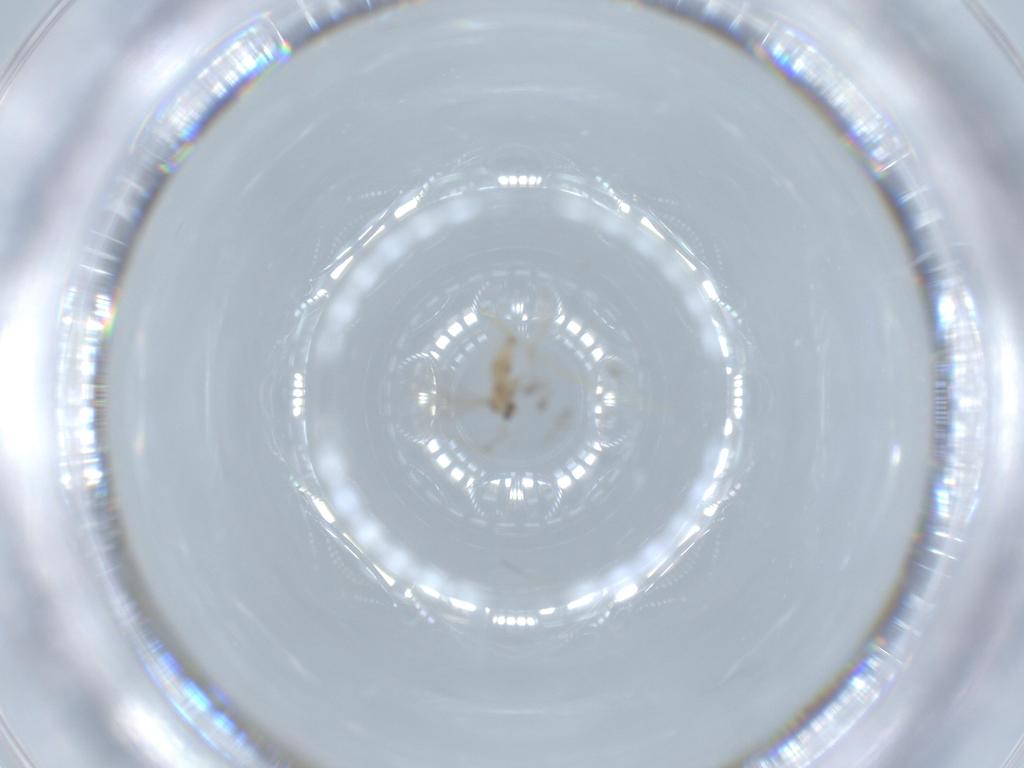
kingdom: Animalia
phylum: Arthropoda
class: Insecta
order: Diptera
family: Cecidomyiidae
